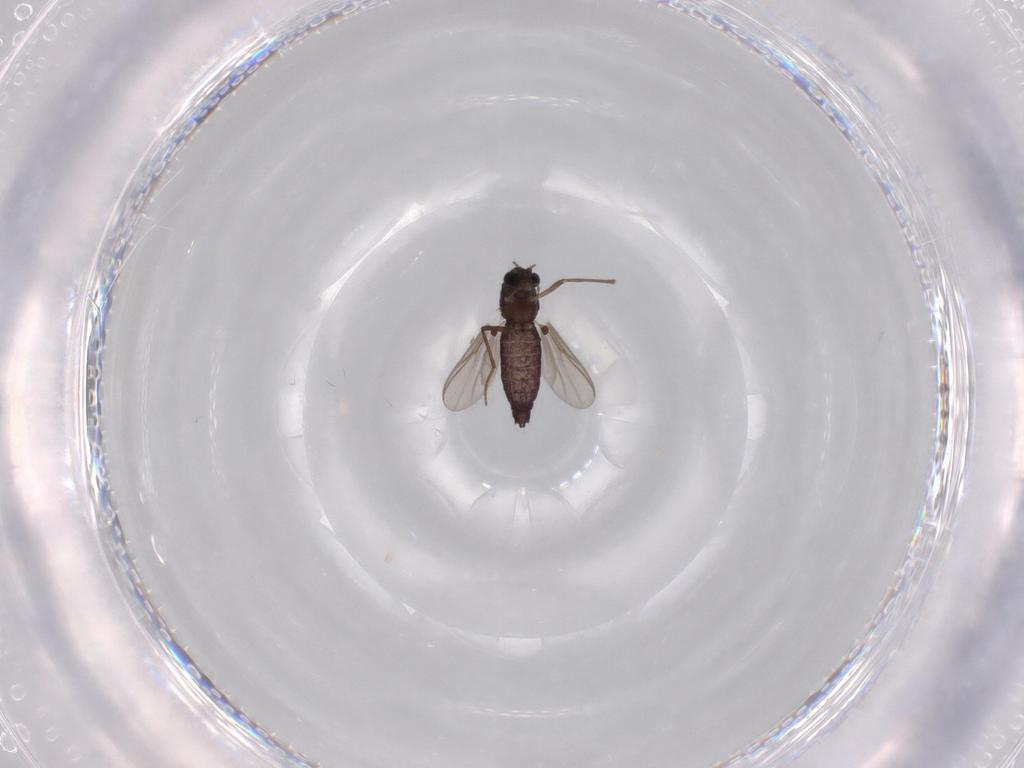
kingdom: Animalia
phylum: Arthropoda
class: Insecta
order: Diptera
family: Chironomidae
